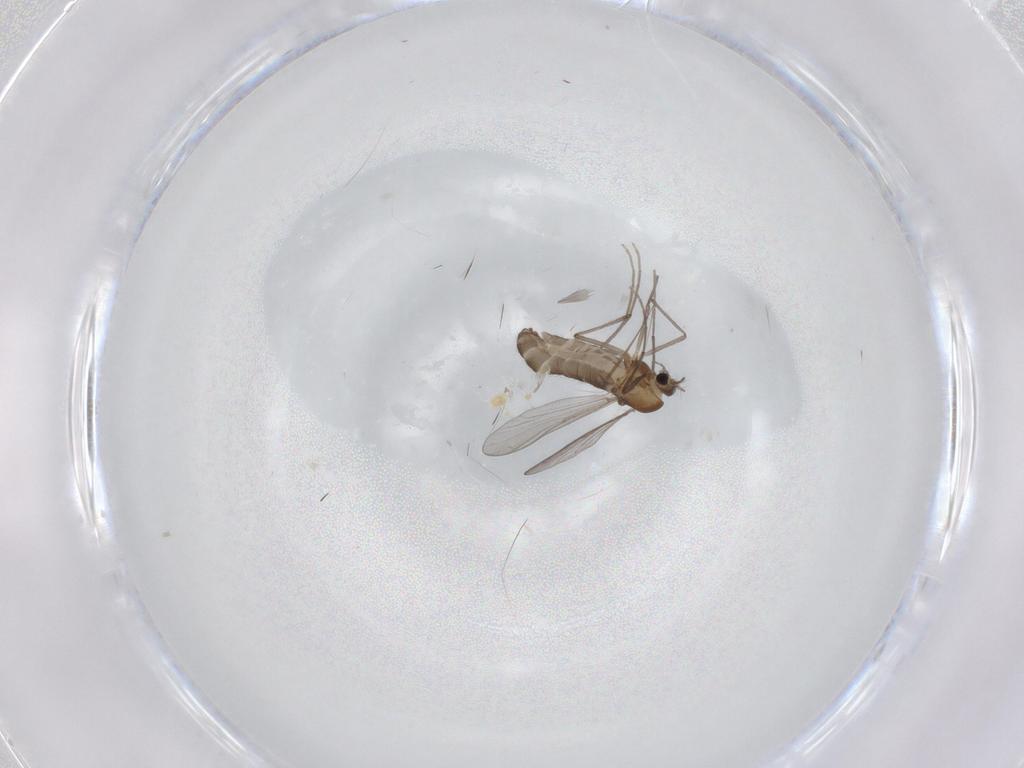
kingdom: Animalia
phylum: Arthropoda
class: Insecta
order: Diptera
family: Chironomidae
